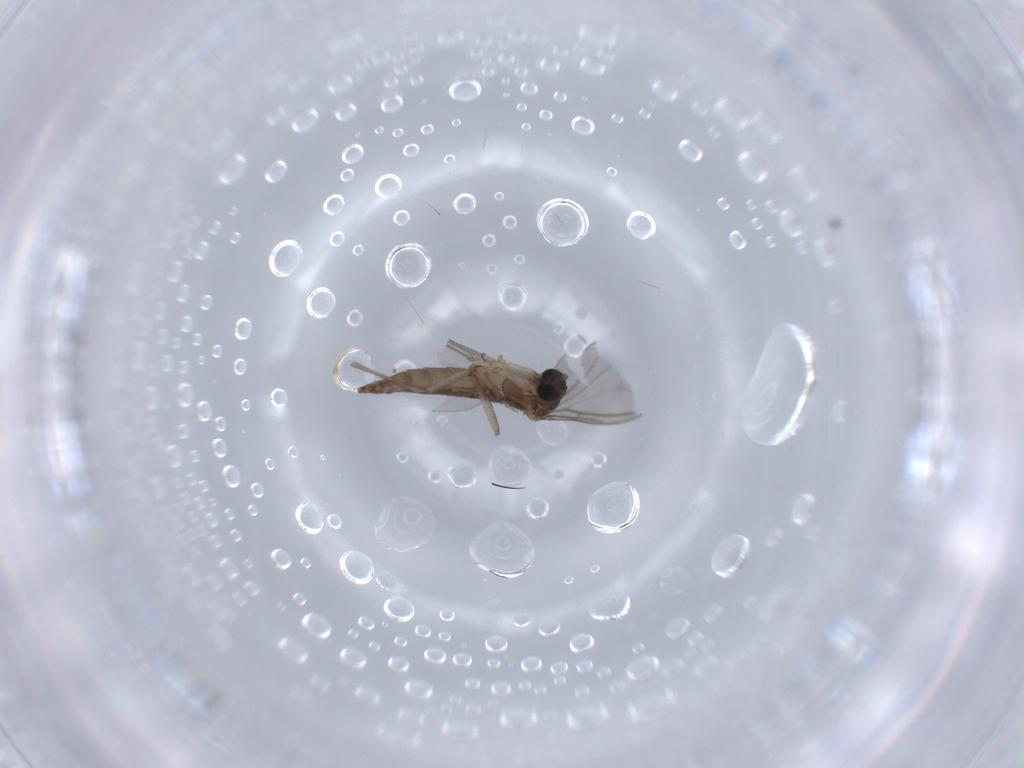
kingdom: Animalia
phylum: Arthropoda
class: Insecta
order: Diptera
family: Sciaridae
